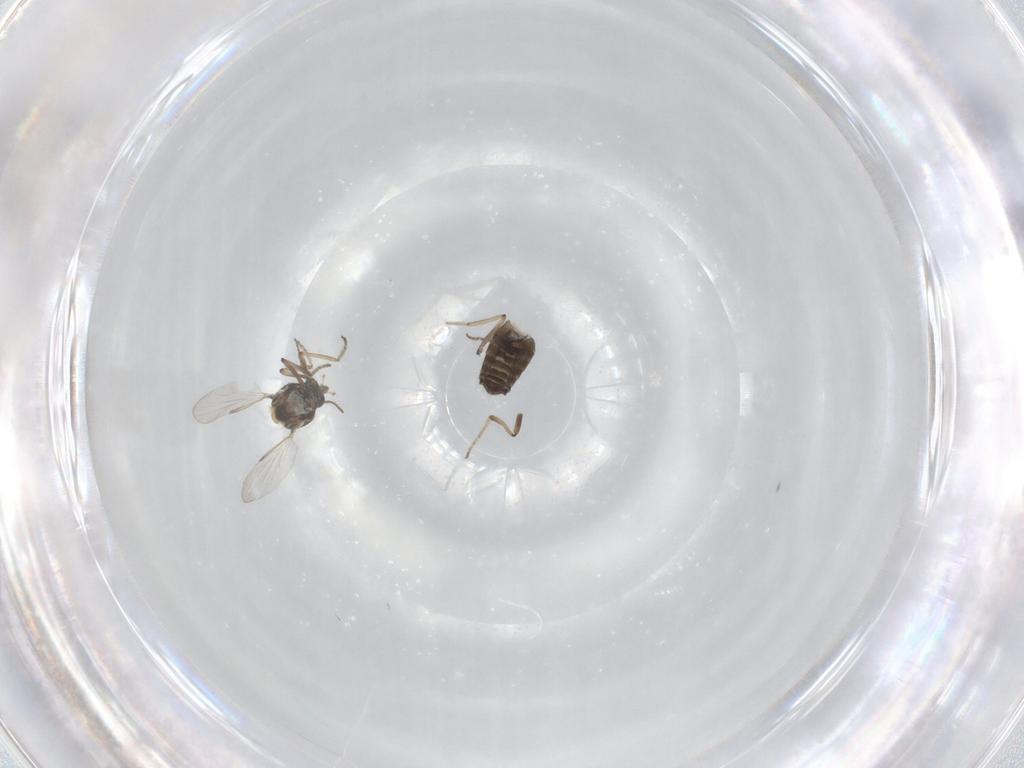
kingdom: Animalia
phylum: Arthropoda
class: Insecta
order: Diptera
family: Ceratopogonidae
